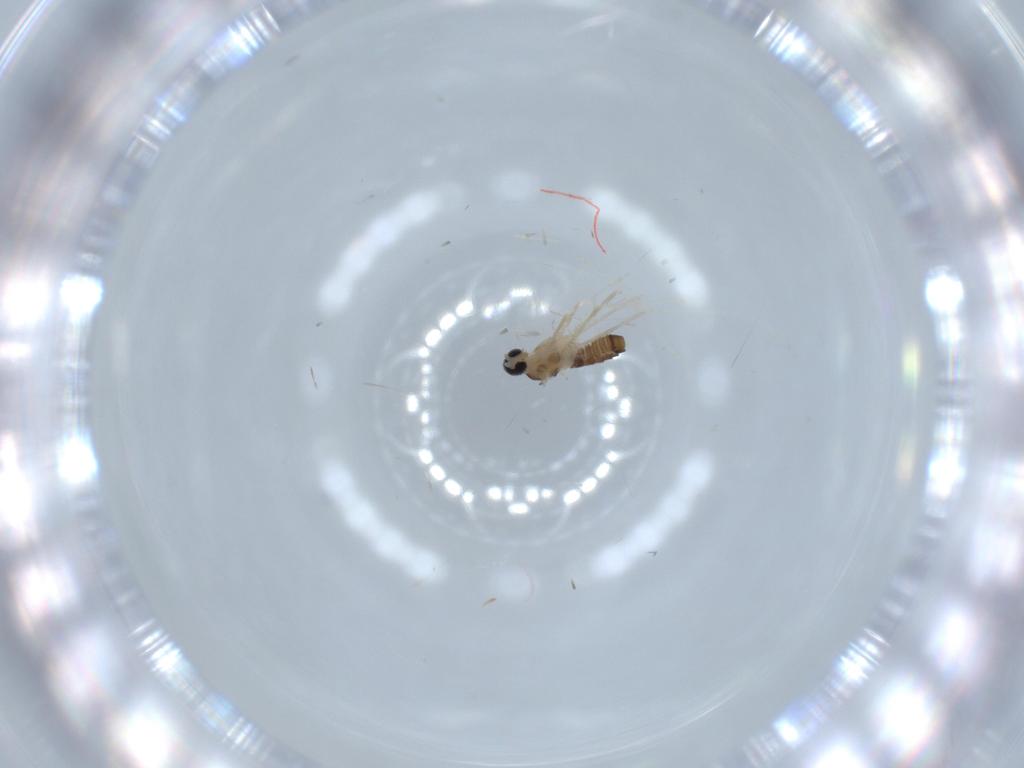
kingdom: Animalia
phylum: Arthropoda
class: Insecta
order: Diptera
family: Cecidomyiidae
